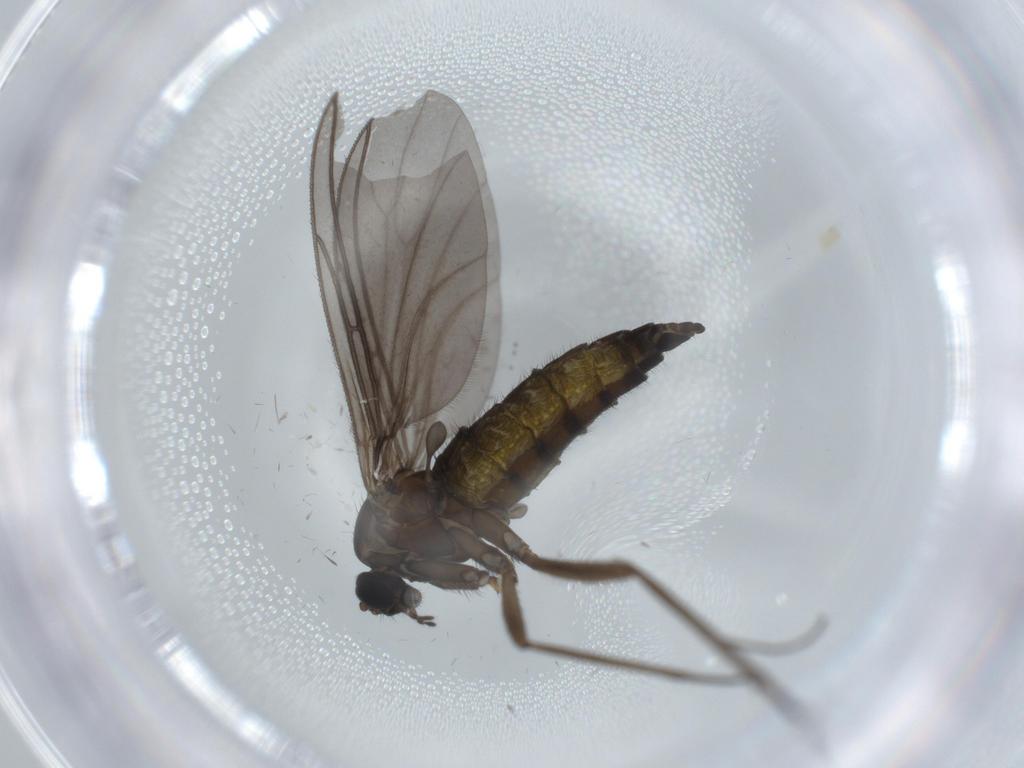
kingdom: Animalia
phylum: Arthropoda
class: Insecta
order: Diptera
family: Sciaridae
